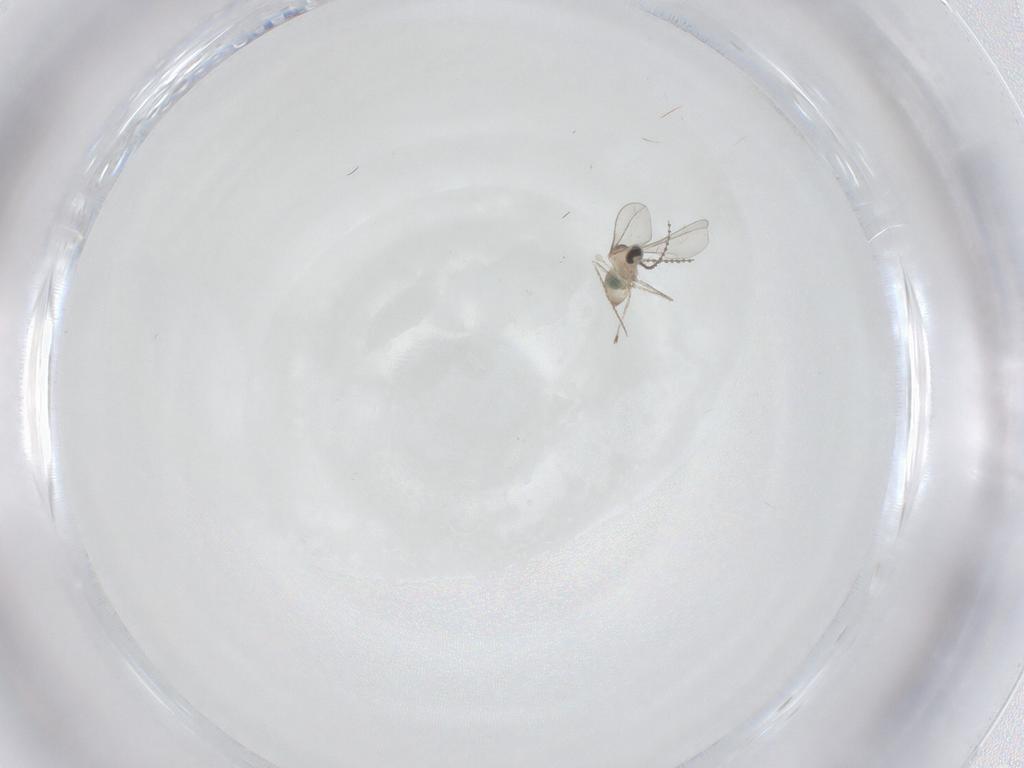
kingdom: Animalia
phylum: Arthropoda
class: Insecta
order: Diptera
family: Cecidomyiidae
